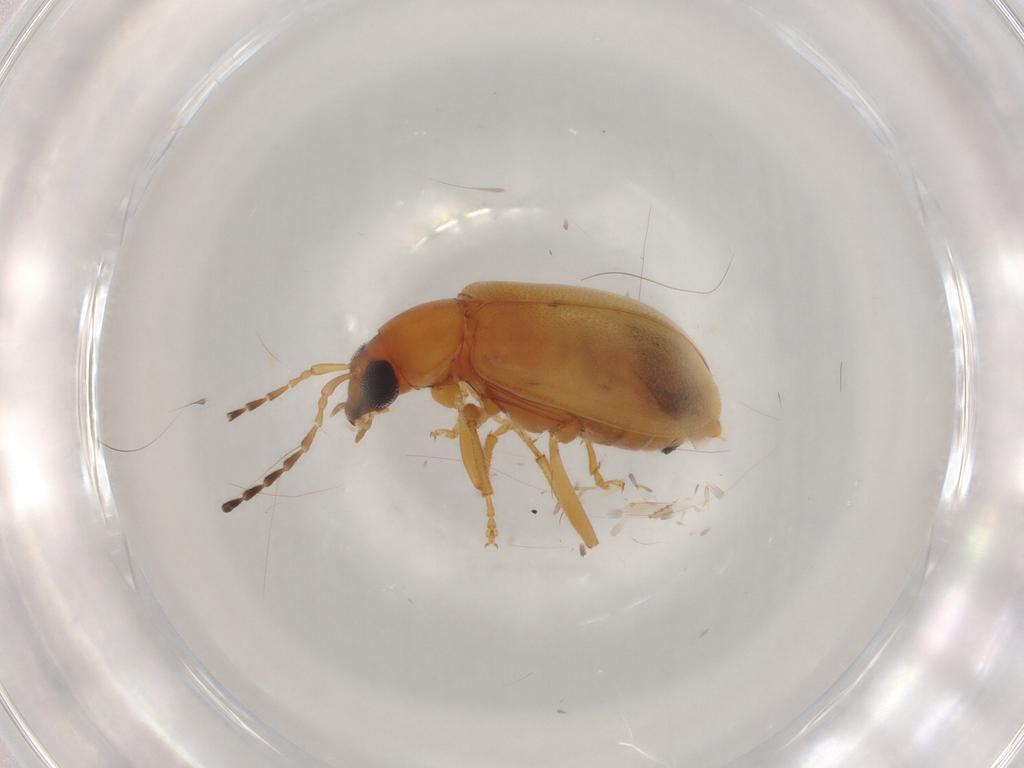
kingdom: Animalia
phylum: Arthropoda
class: Insecta
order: Coleoptera
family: Chrysomelidae
